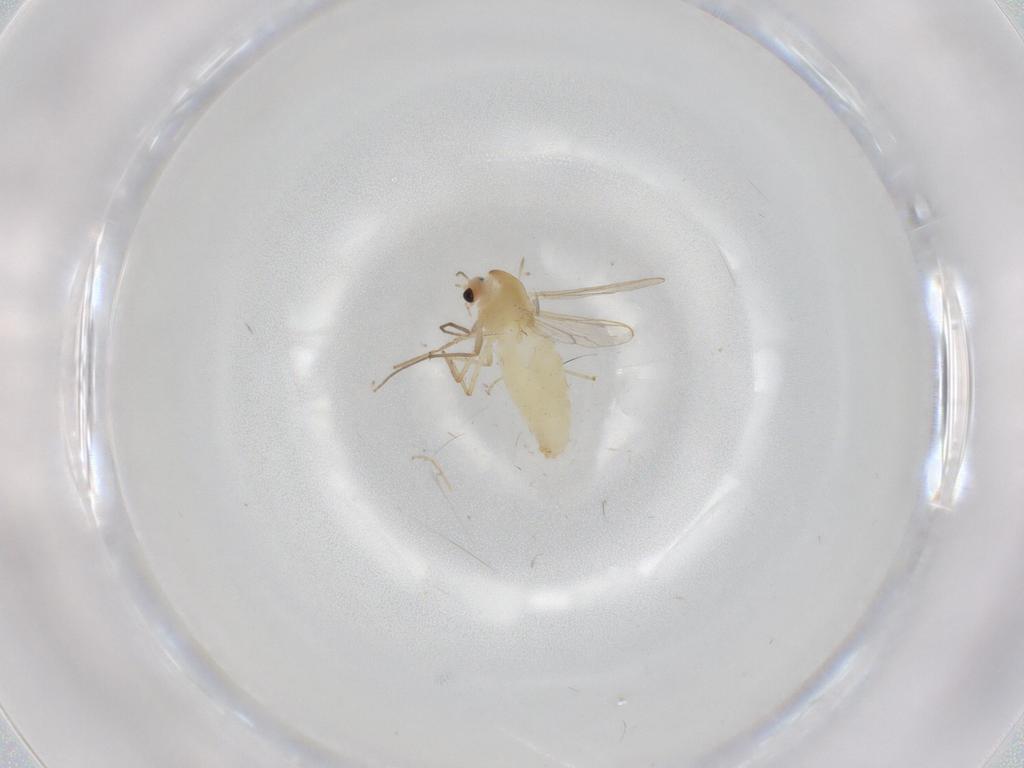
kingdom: Animalia
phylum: Arthropoda
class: Insecta
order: Diptera
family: Chironomidae
